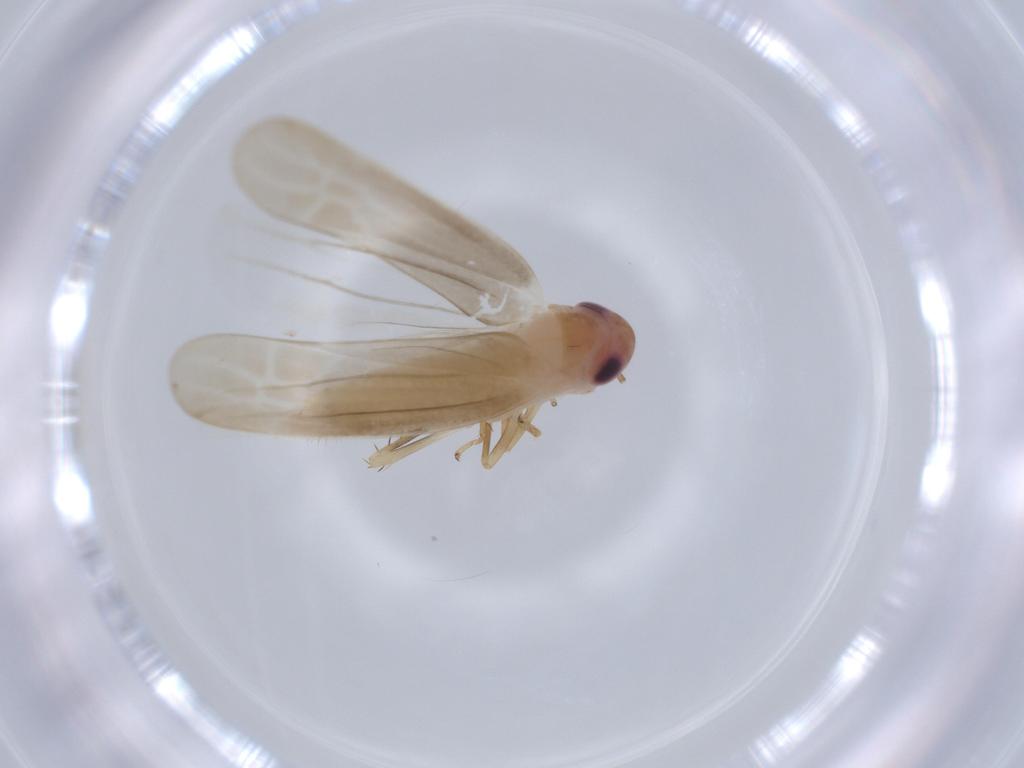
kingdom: Animalia
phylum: Arthropoda
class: Insecta
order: Hemiptera
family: Cicadellidae
